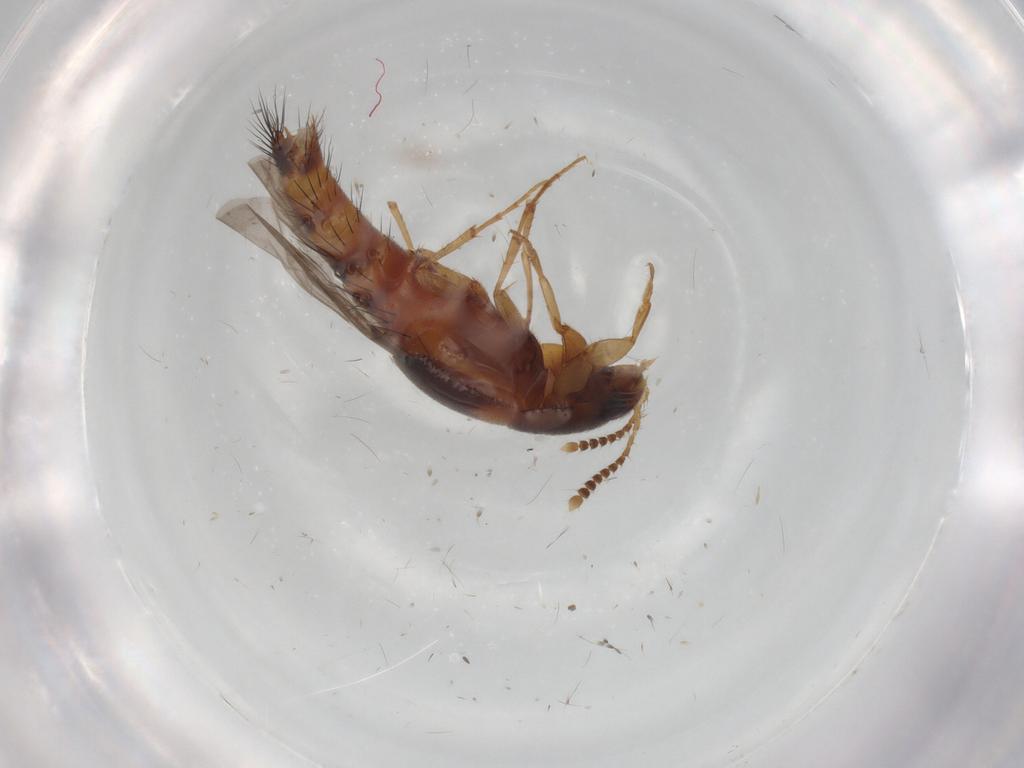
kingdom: Animalia
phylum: Arthropoda
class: Insecta
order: Coleoptera
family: Staphylinidae
